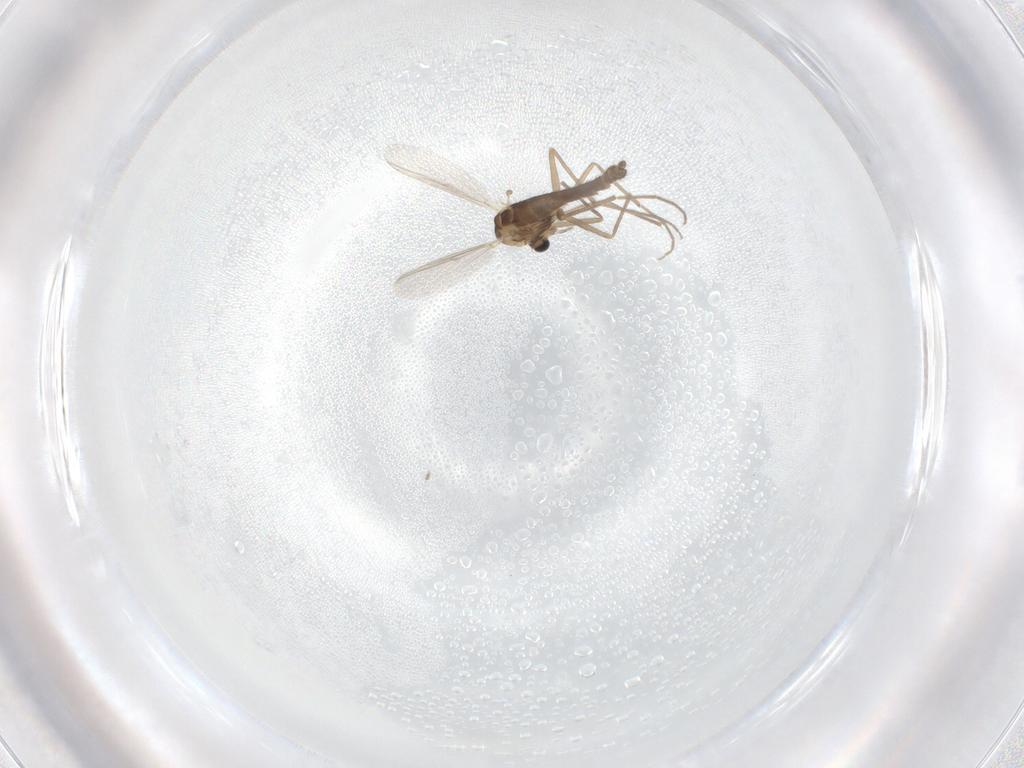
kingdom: Animalia
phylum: Arthropoda
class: Insecta
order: Diptera
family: Chironomidae
